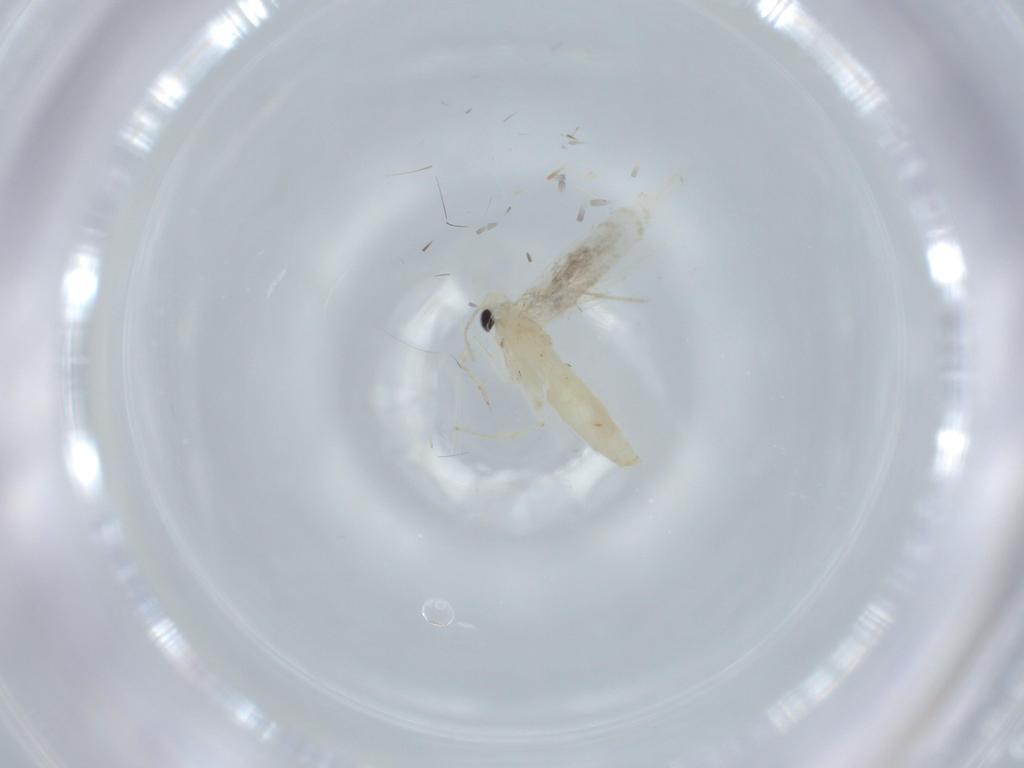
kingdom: Animalia
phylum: Arthropoda
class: Insecta
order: Lepidoptera
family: Gracillariidae
